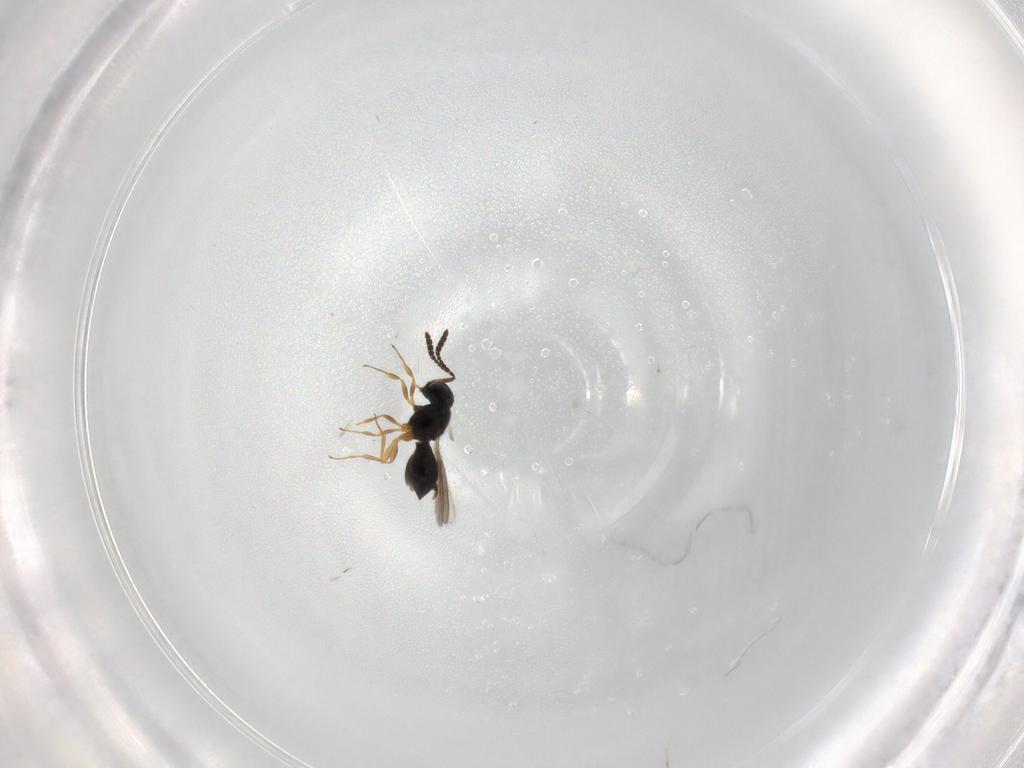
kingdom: Animalia
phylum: Arthropoda
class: Insecta
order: Hymenoptera
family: Scelionidae
